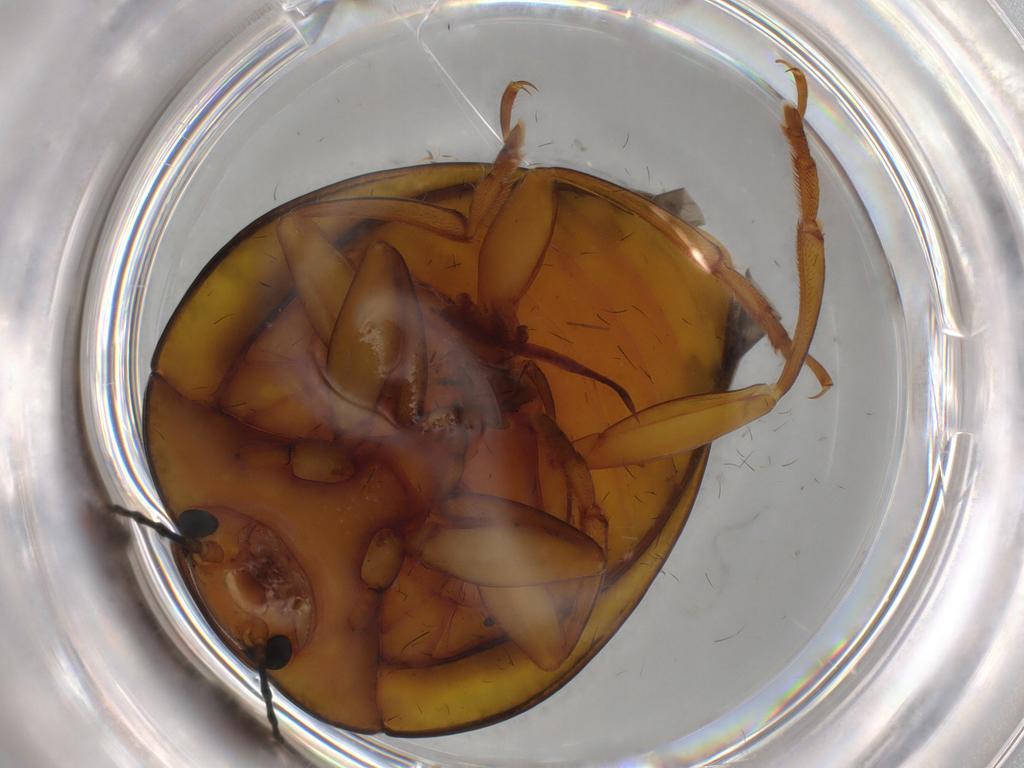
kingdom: Animalia
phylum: Arthropoda
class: Insecta
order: Coleoptera
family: Erotylidae
